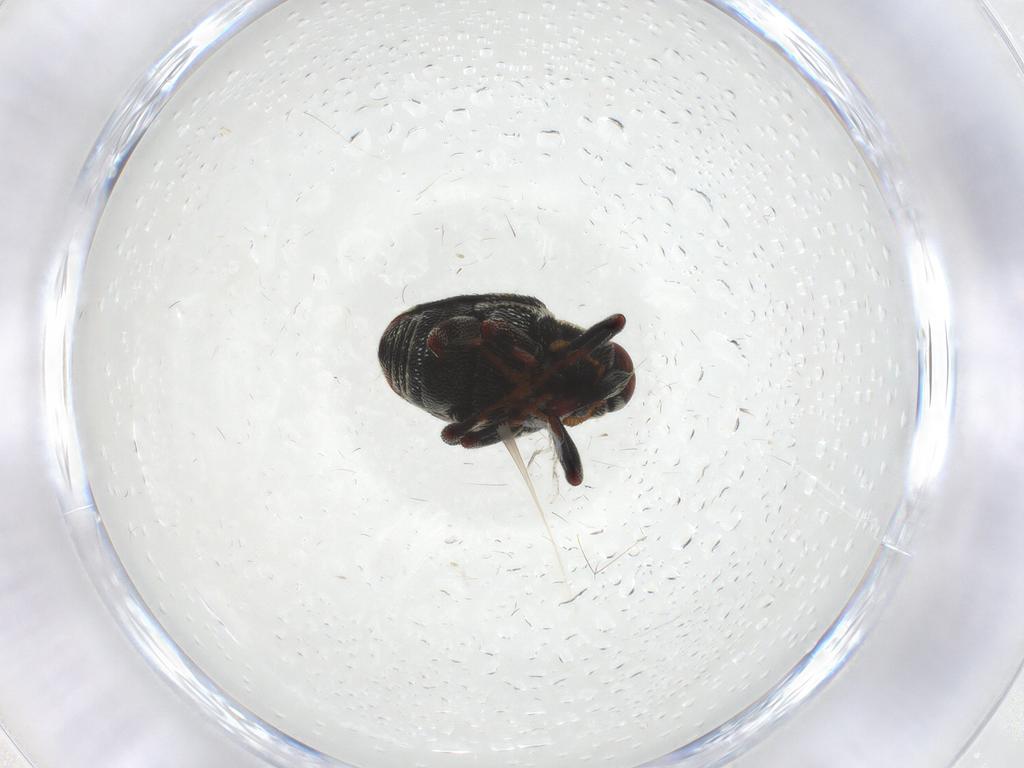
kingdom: Animalia
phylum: Arthropoda
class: Insecta
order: Coleoptera
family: Curculionidae
